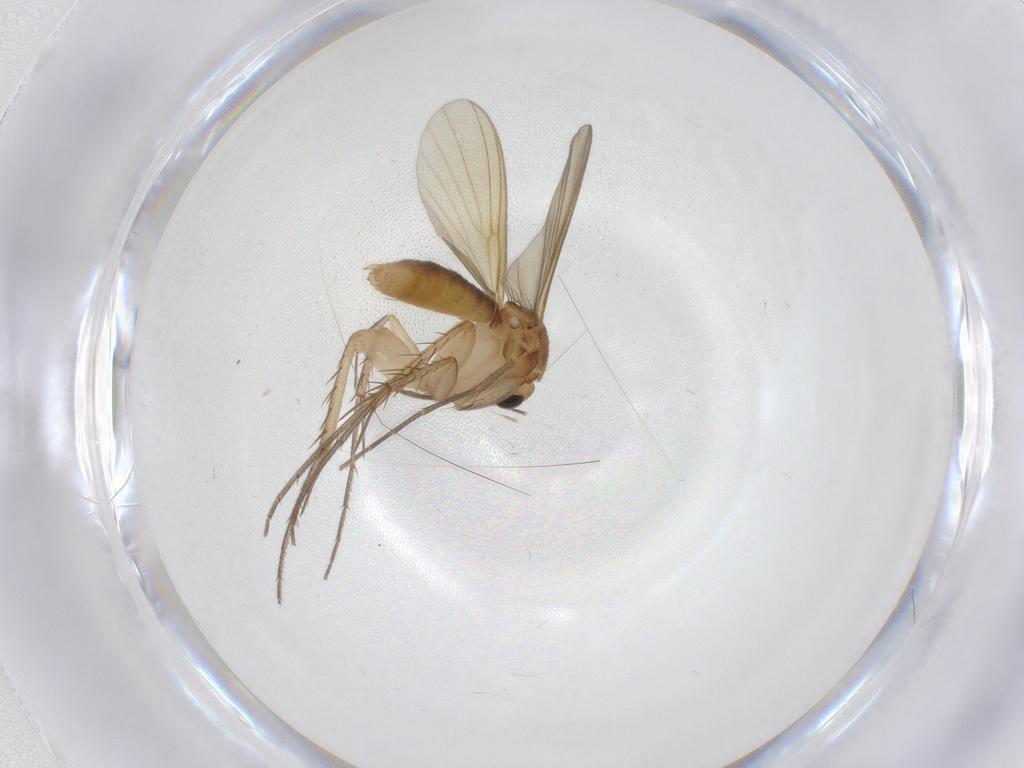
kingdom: Animalia
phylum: Arthropoda
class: Insecta
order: Diptera
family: Mycetophilidae
